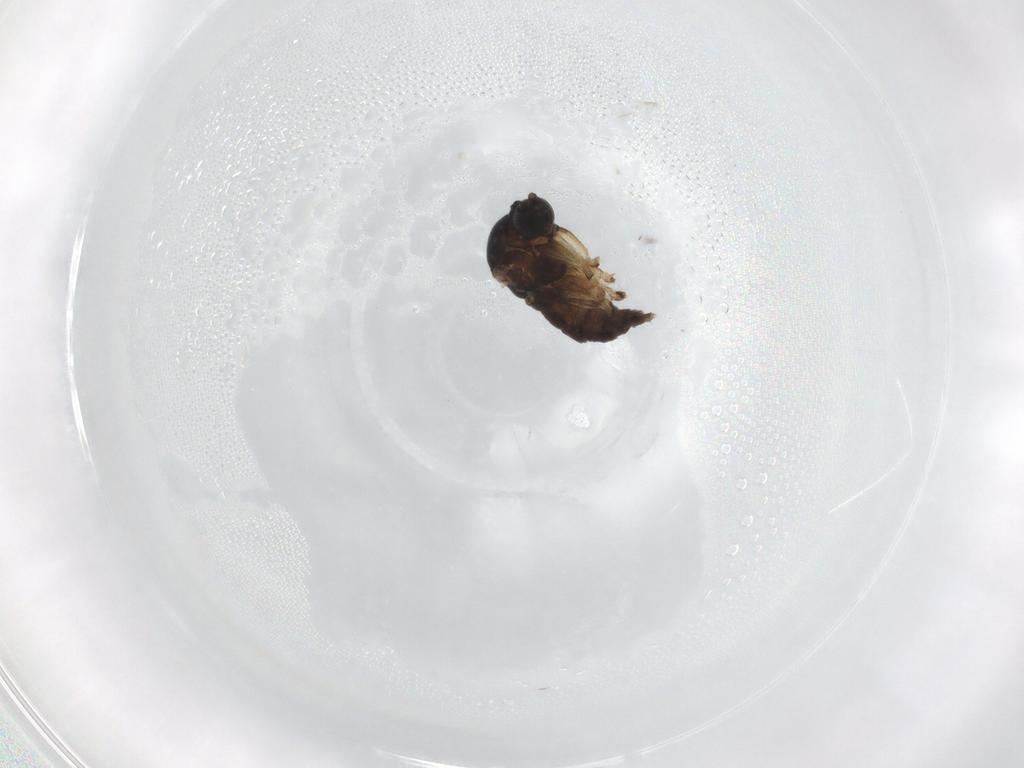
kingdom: Animalia
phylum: Arthropoda
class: Insecta
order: Diptera
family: Sciaridae
